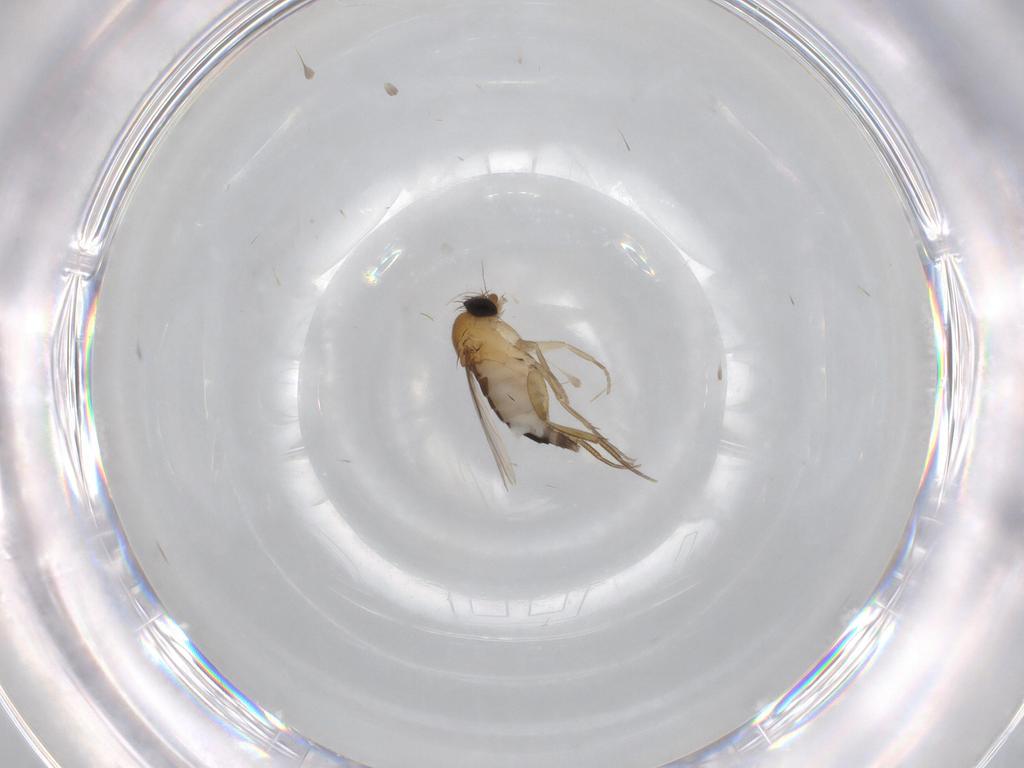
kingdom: Animalia
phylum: Arthropoda
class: Insecta
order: Diptera
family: Phoridae
